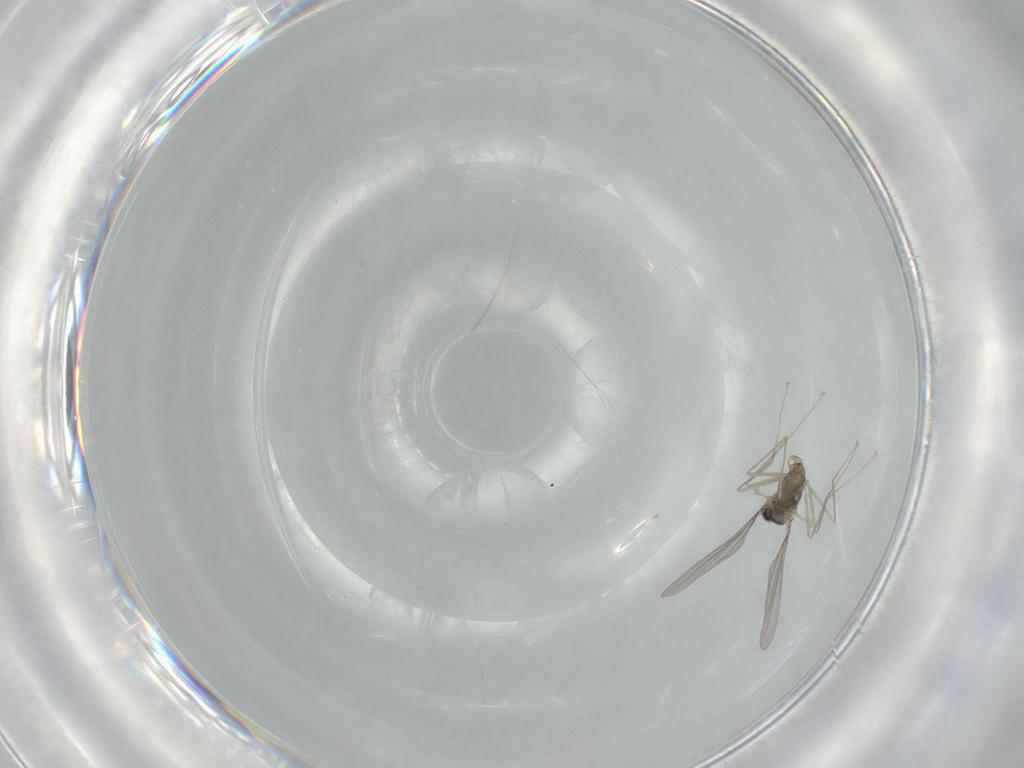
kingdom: Animalia
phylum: Arthropoda
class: Insecta
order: Diptera
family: Cecidomyiidae
